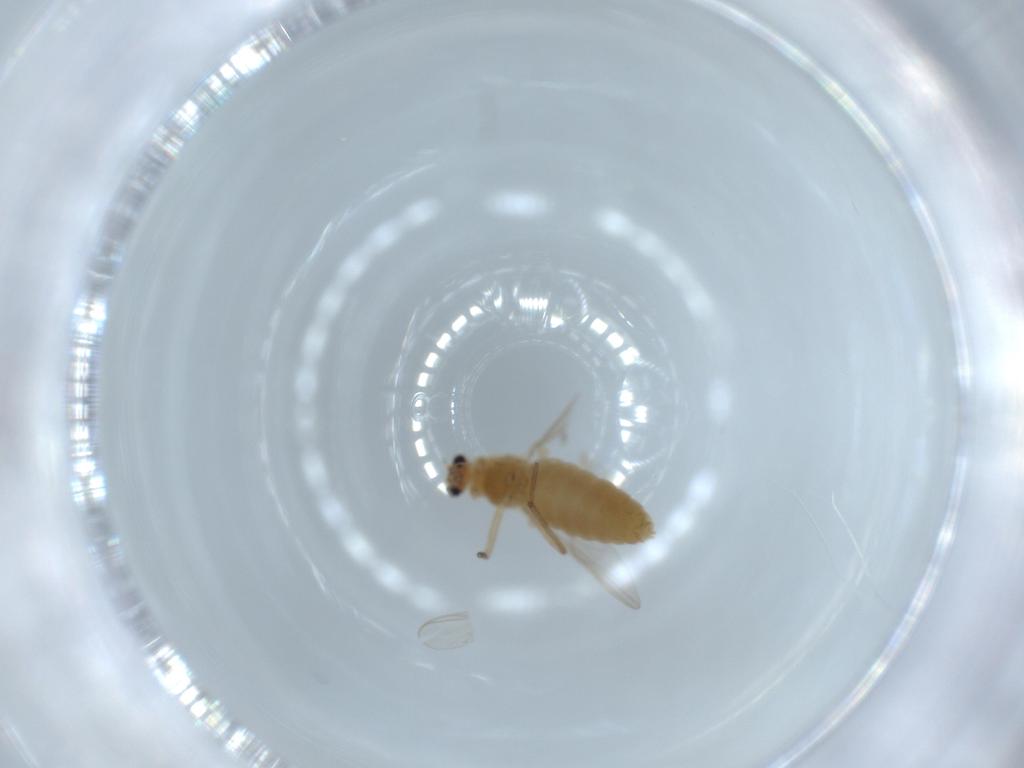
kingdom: Animalia
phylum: Arthropoda
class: Insecta
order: Diptera
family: Chironomidae
